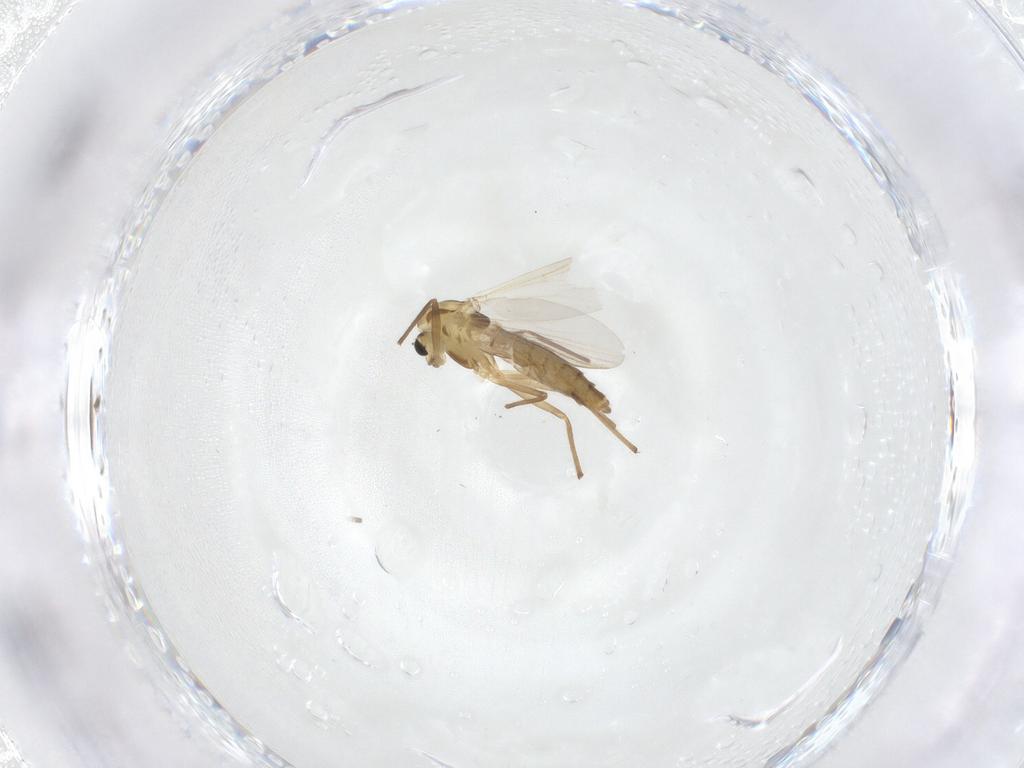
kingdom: Animalia
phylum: Arthropoda
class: Insecta
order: Diptera
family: Chironomidae
